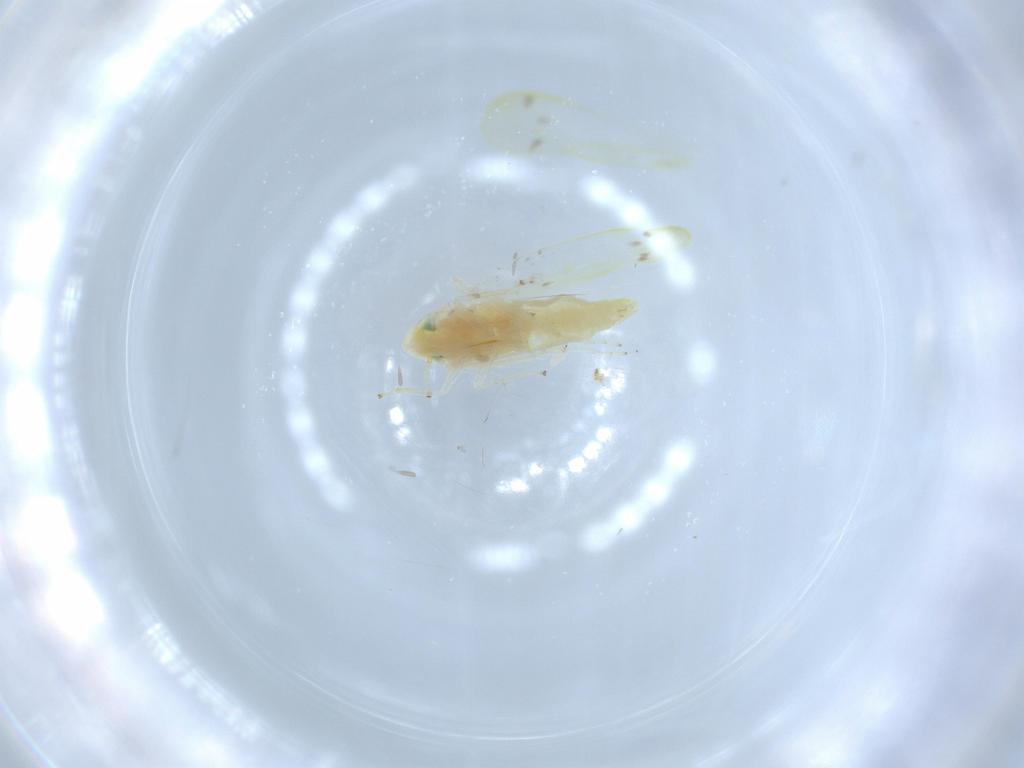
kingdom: Animalia
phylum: Arthropoda
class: Insecta
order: Hemiptera
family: Cicadellidae
